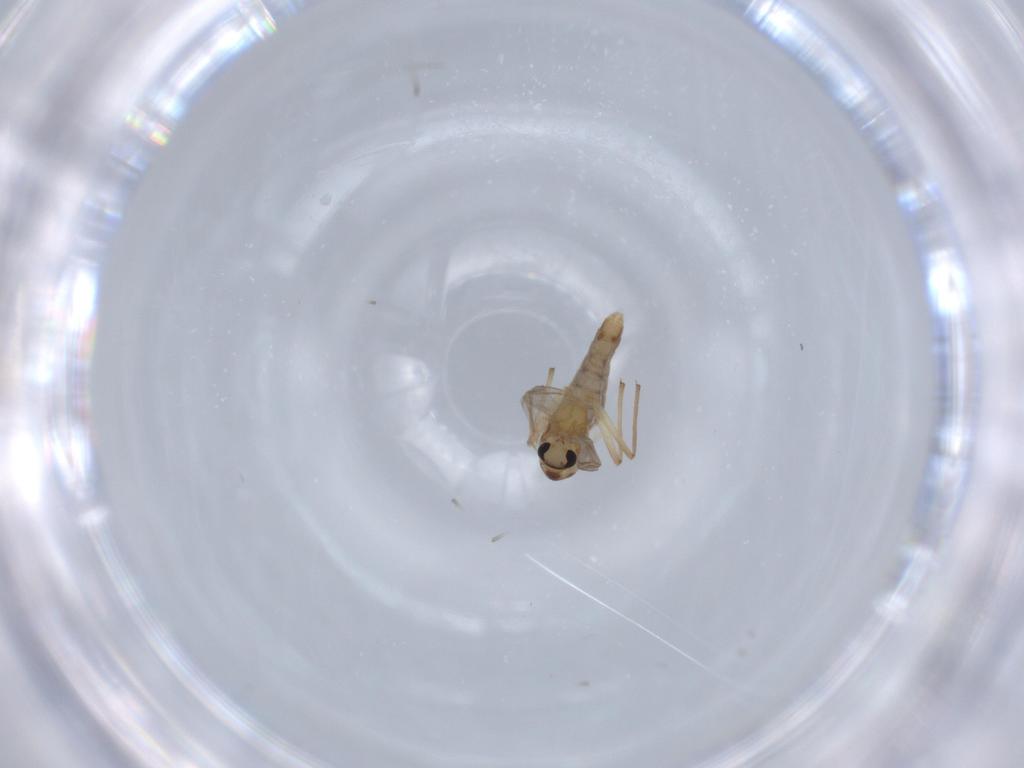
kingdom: Animalia
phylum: Arthropoda
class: Insecta
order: Diptera
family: Chironomidae
